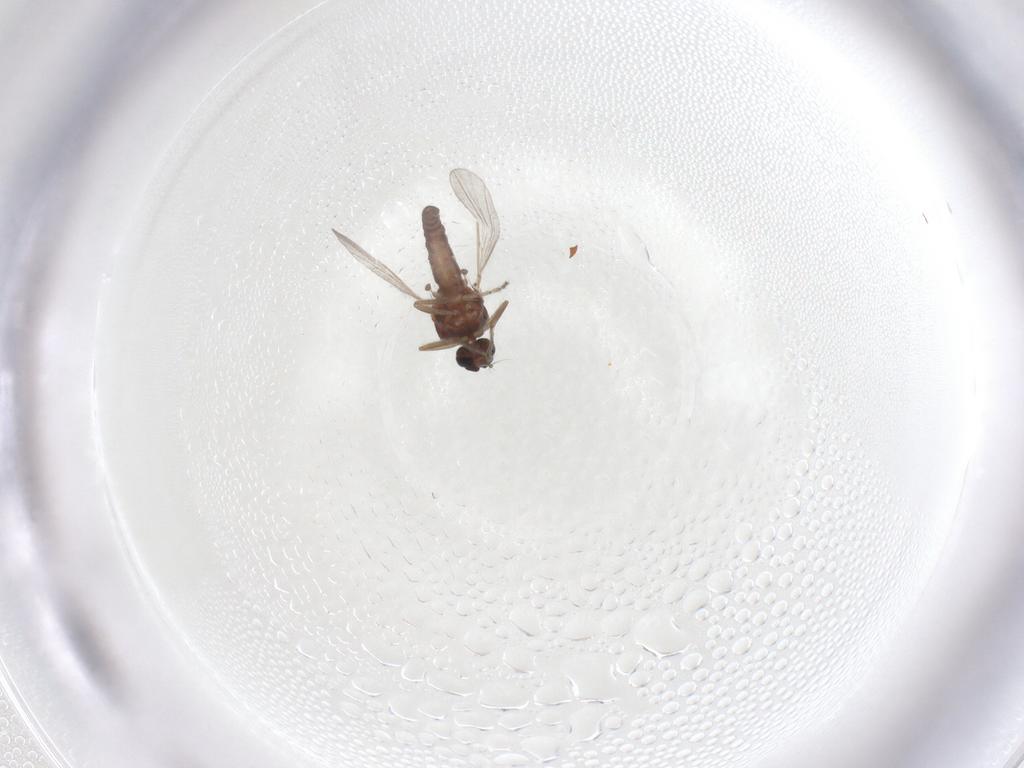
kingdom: Animalia
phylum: Arthropoda
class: Insecta
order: Diptera
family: Ceratopogonidae
